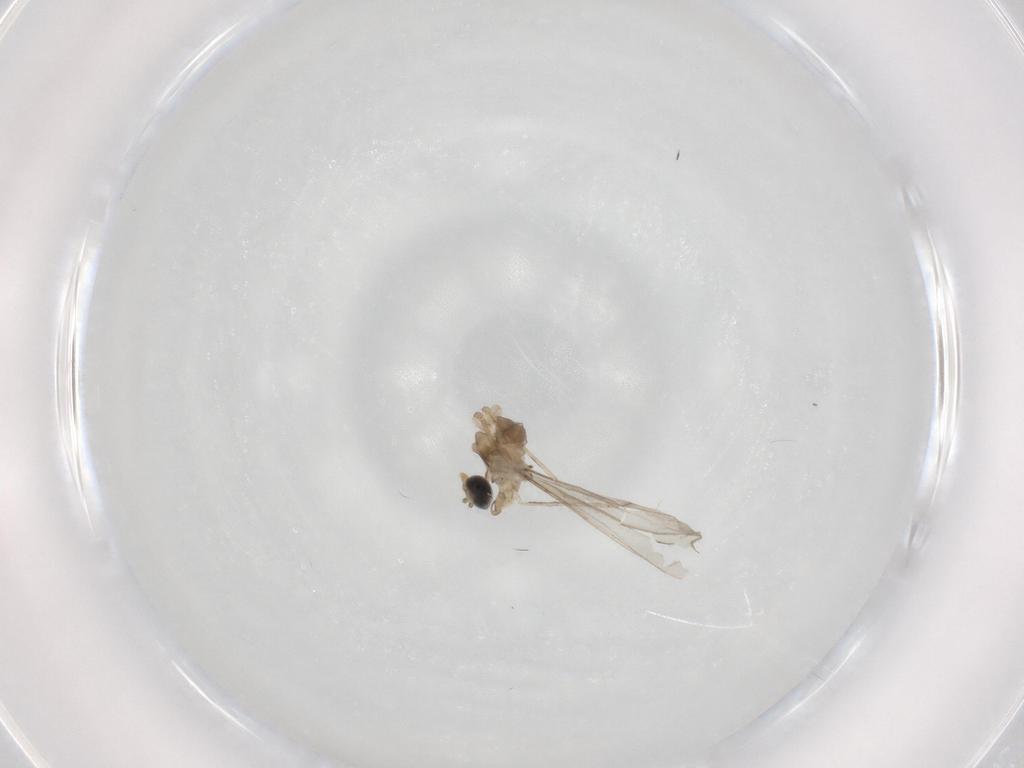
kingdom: Animalia
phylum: Arthropoda
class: Insecta
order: Diptera
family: Cecidomyiidae
